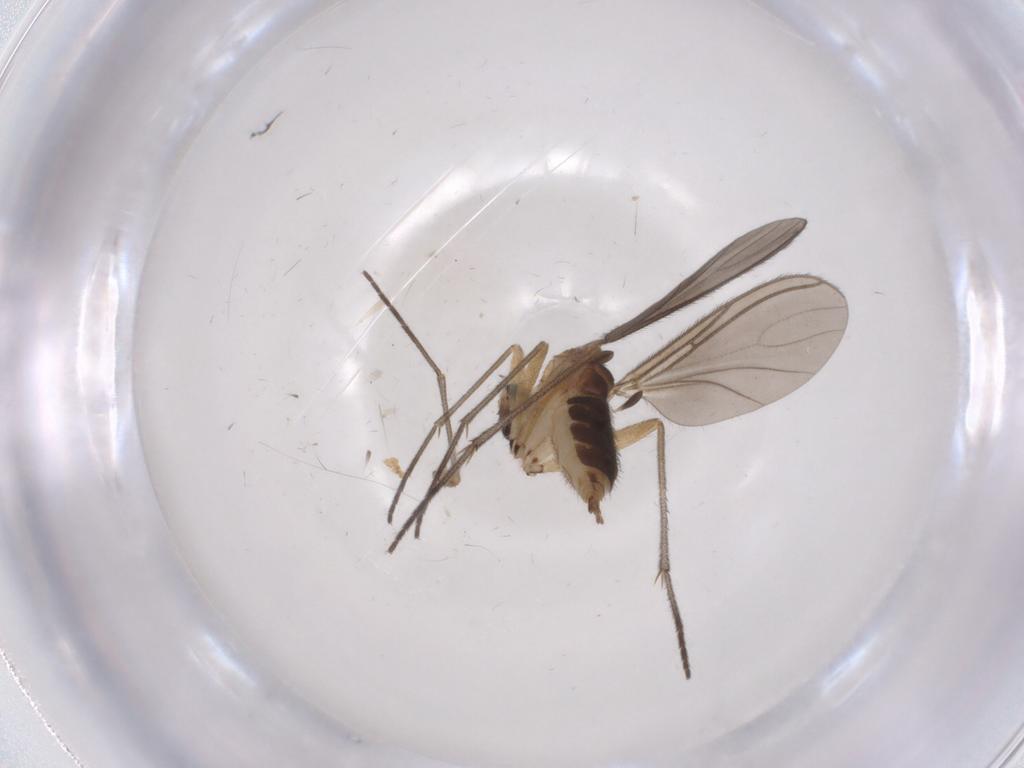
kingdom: Animalia
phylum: Arthropoda
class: Insecta
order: Diptera
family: Sciaridae
